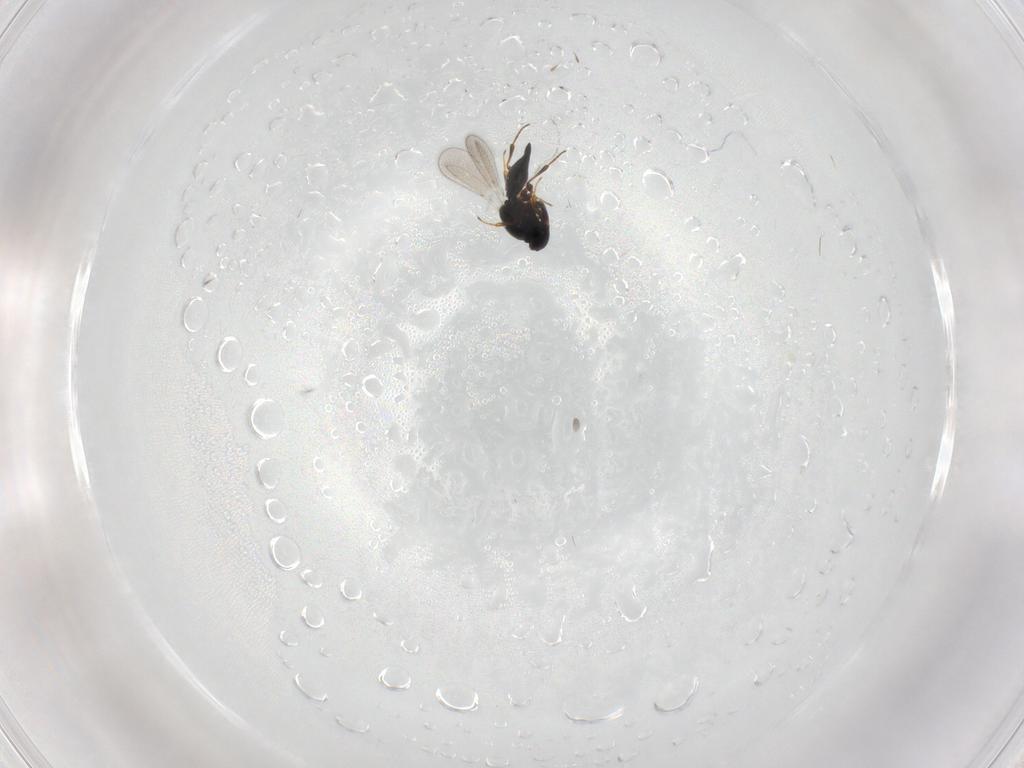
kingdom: Animalia
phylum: Arthropoda
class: Insecta
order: Hymenoptera
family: Platygastridae
